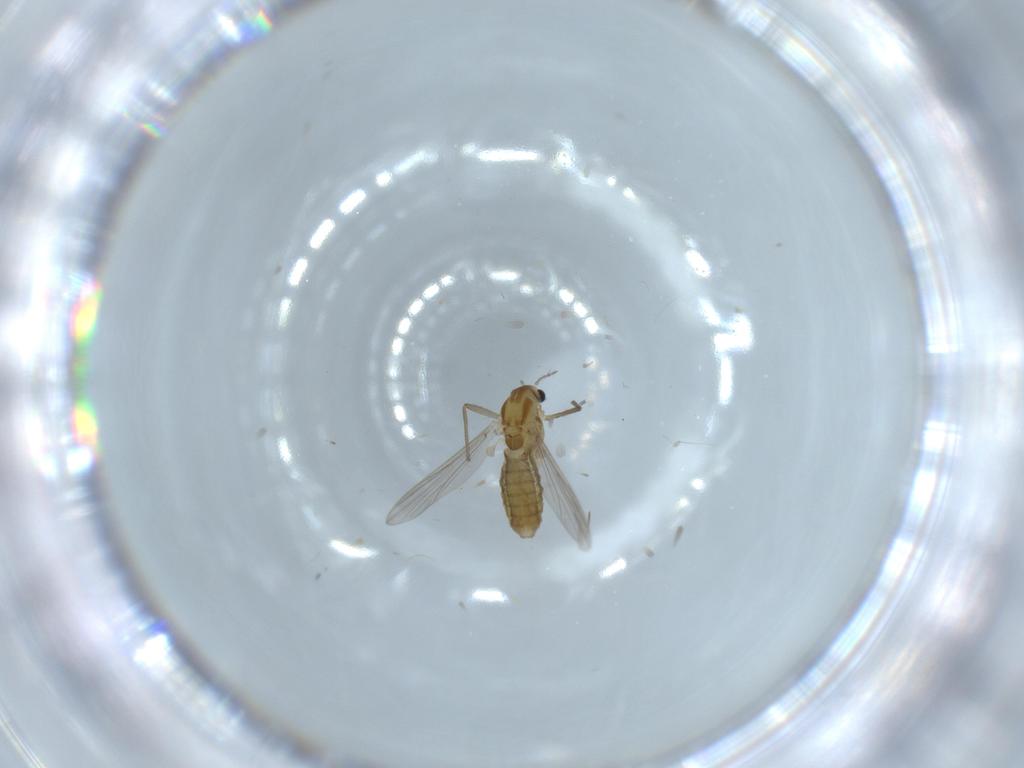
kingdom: Animalia
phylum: Arthropoda
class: Insecta
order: Diptera
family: Chironomidae
